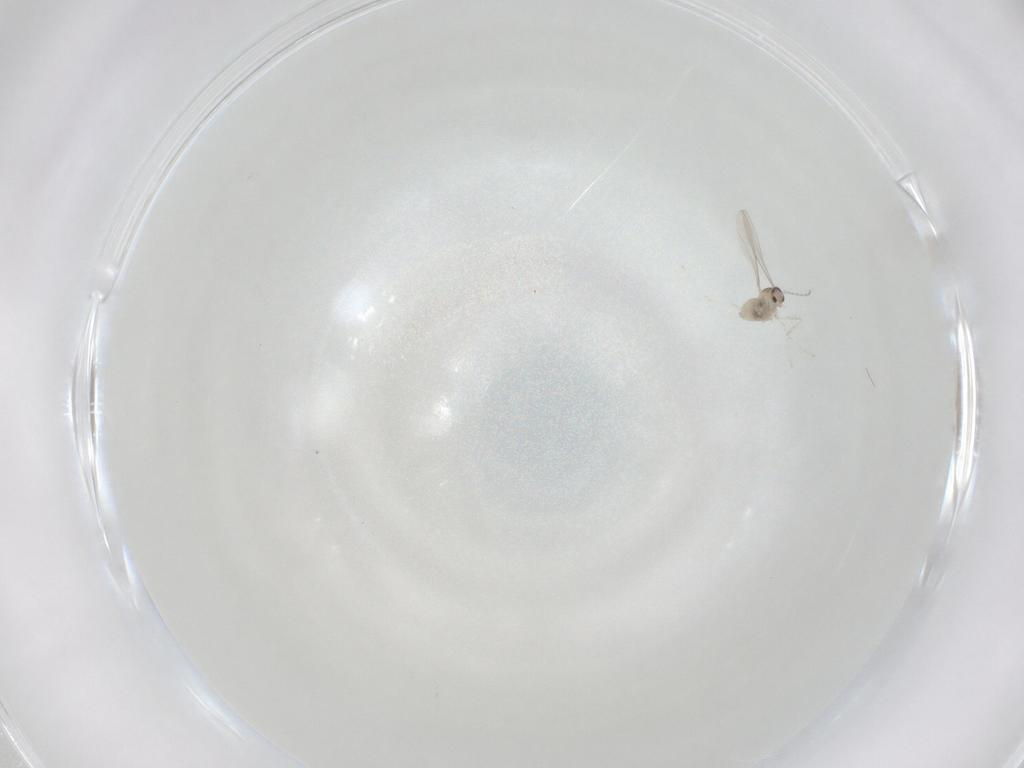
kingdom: Animalia
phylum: Arthropoda
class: Insecta
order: Diptera
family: Cecidomyiidae
